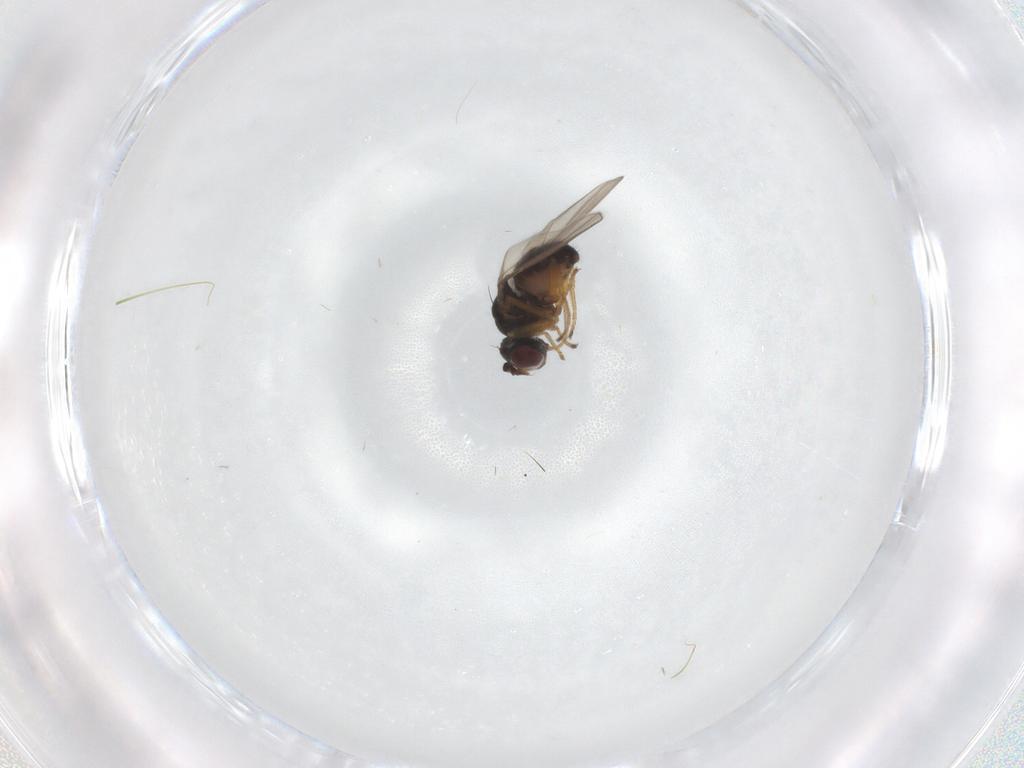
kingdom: Animalia
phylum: Arthropoda
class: Insecta
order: Diptera
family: Ephydridae
